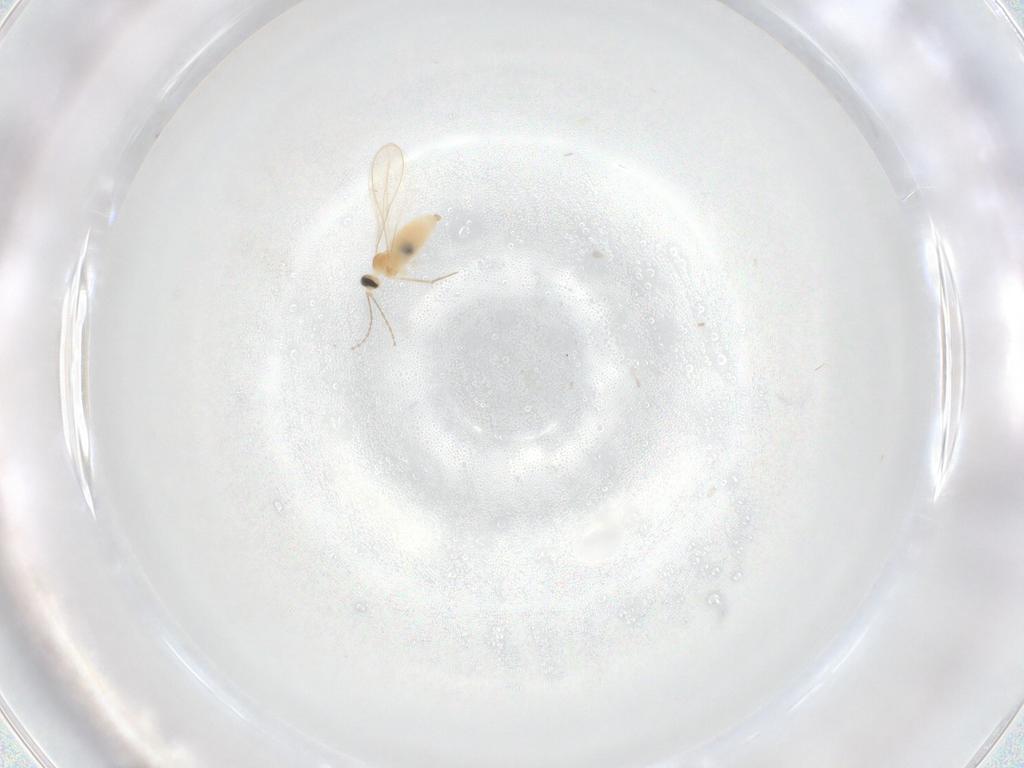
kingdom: Animalia
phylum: Arthropoda
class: Insecta
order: Diptera
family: Cecidomyiidae
